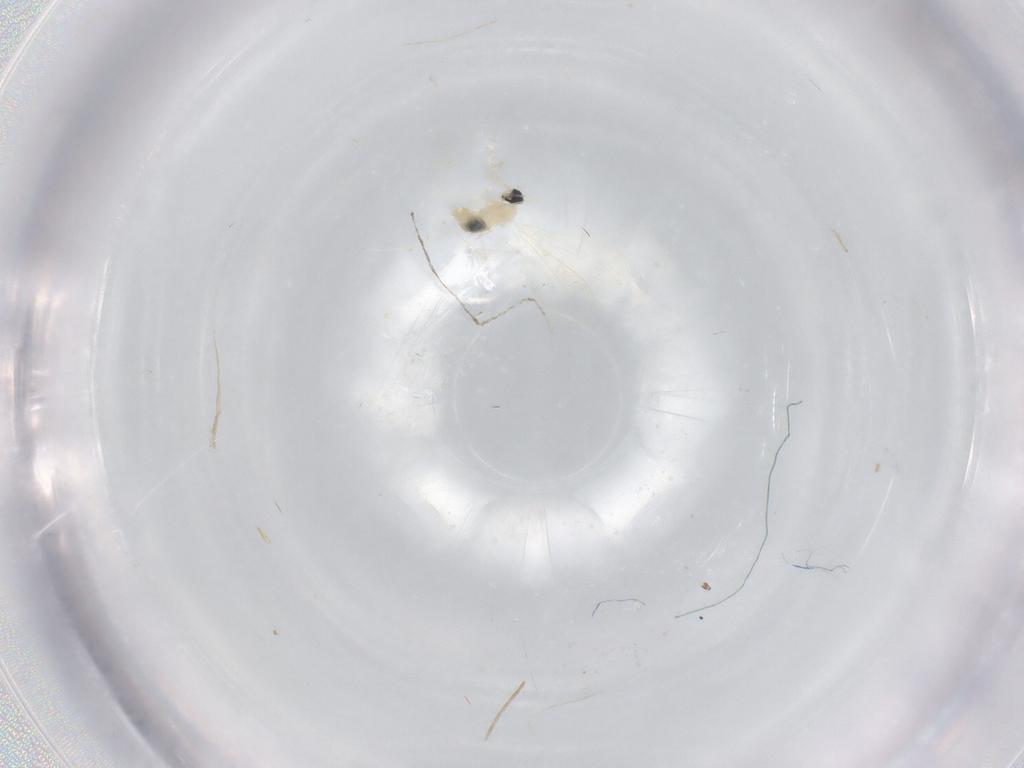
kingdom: Animalia
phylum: Arthropoda
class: Insecta
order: Diptera
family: Cecidomyiidae
